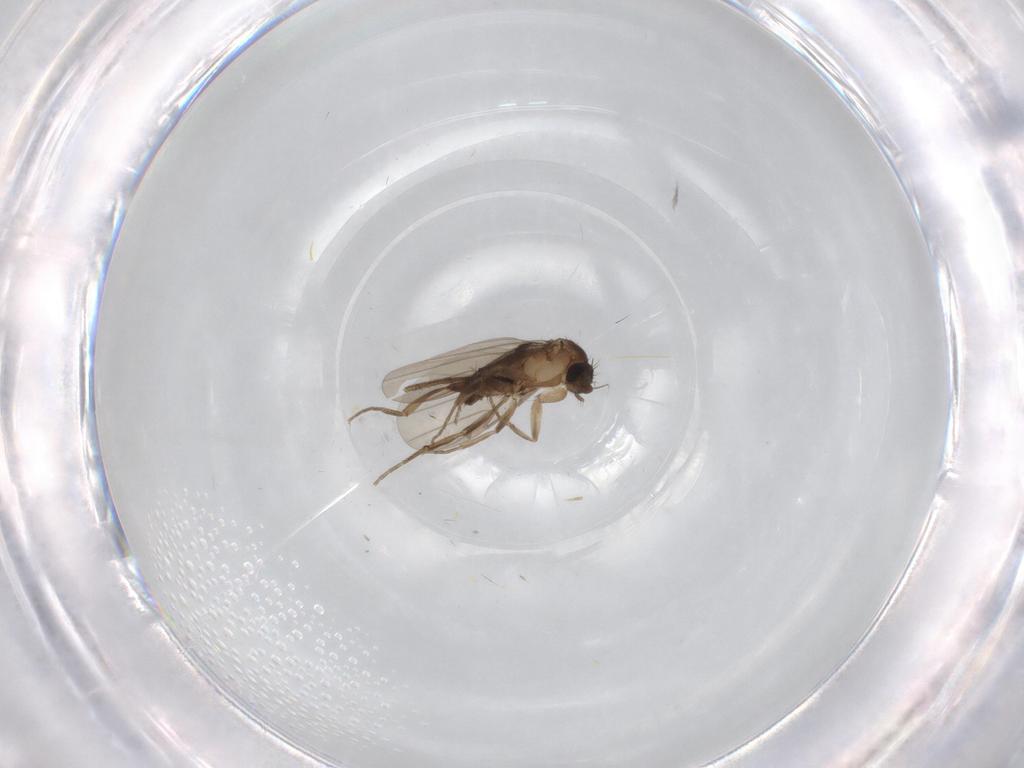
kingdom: Animalia
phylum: Arthropoda
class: Insecta
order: Diptera
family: Phoridae
